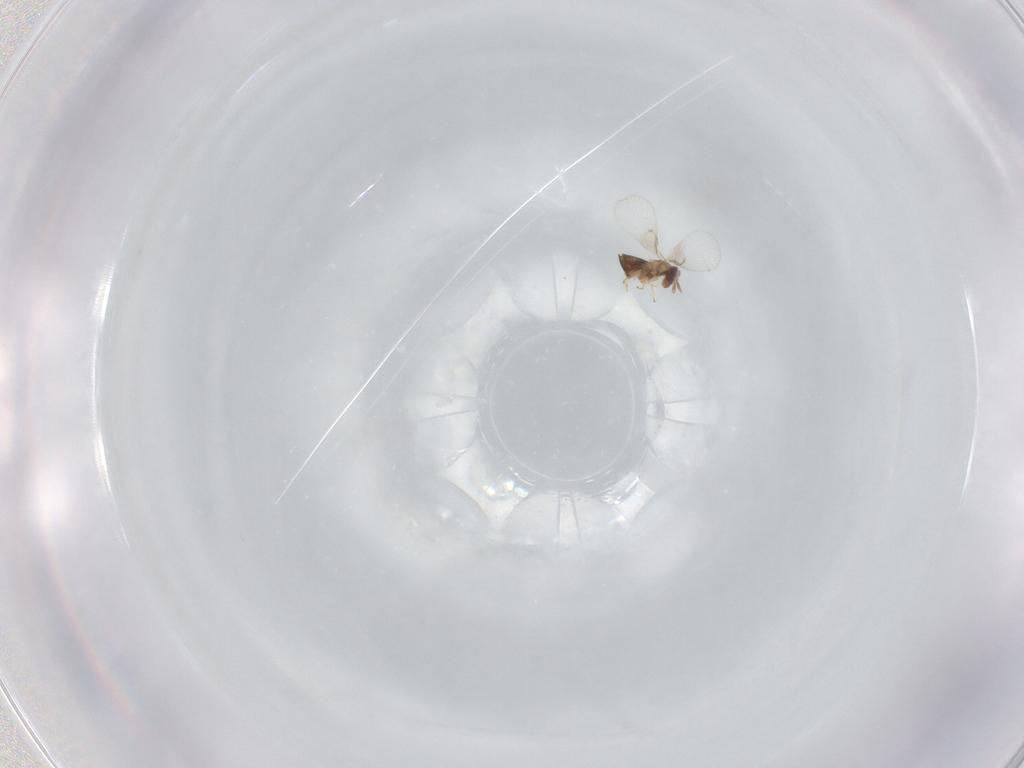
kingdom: Animalia
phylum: Arthropoda
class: Insecta
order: Hymenoptera
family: Trichogrammatidae
